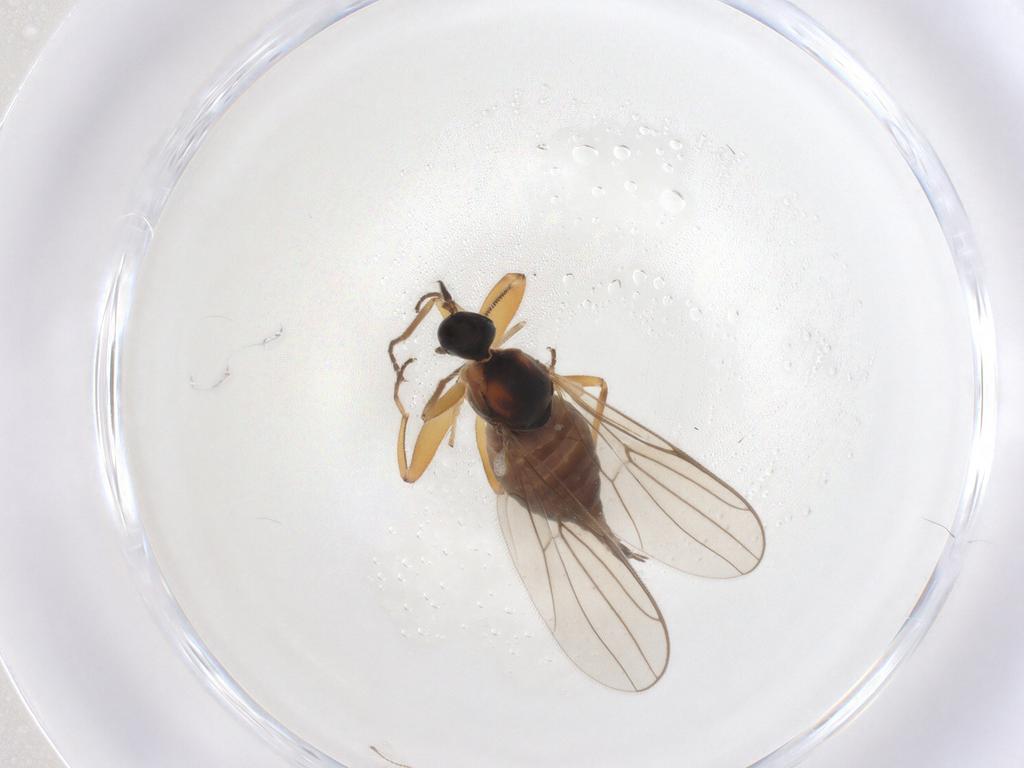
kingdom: Animalia
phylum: Arthropoda
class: Insecta
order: Diptera
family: Hybotidae
